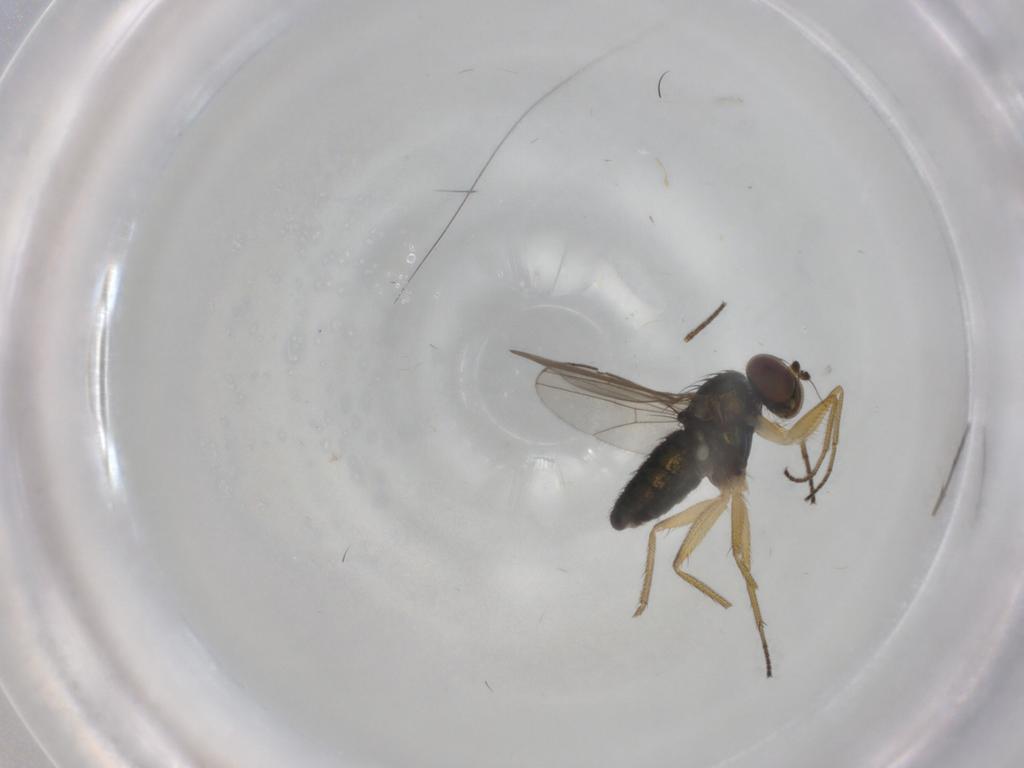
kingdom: Animalia
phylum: Arthropoda
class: Insecta
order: Diptera
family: Dolichopodidae
